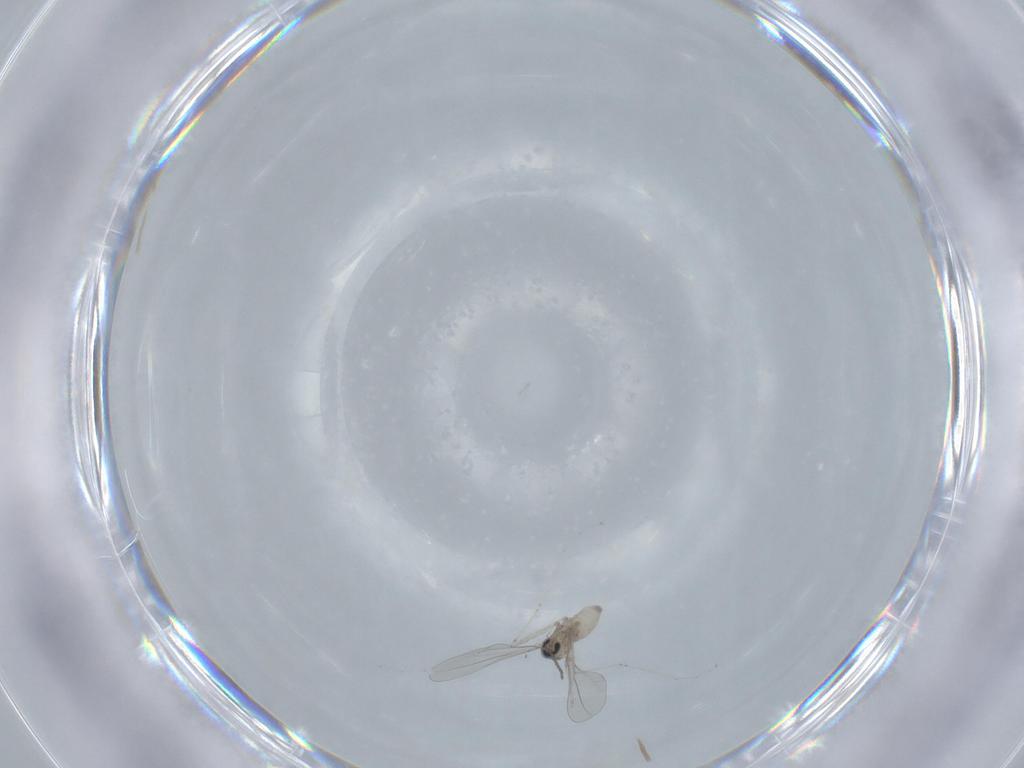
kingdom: Animalia
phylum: Arthropoda
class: Insecta
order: Diptera
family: Cecidomyiidae
